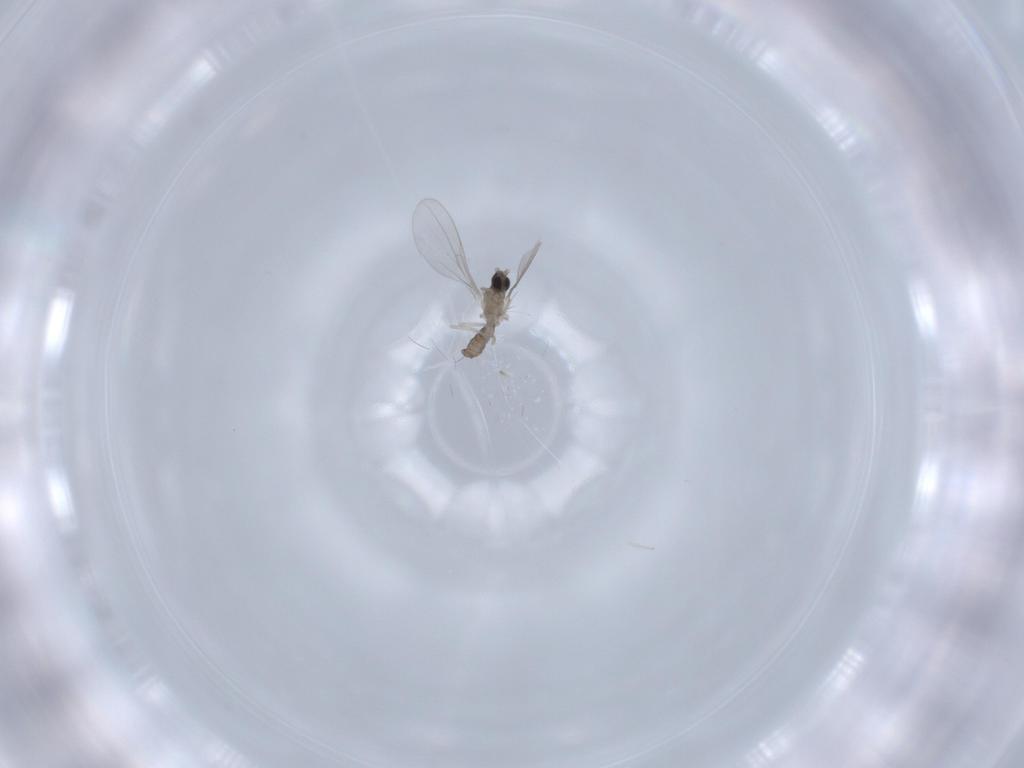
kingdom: Animalia
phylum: Arthropoda
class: Insecta
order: Diptera
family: Cecidomyiidae
